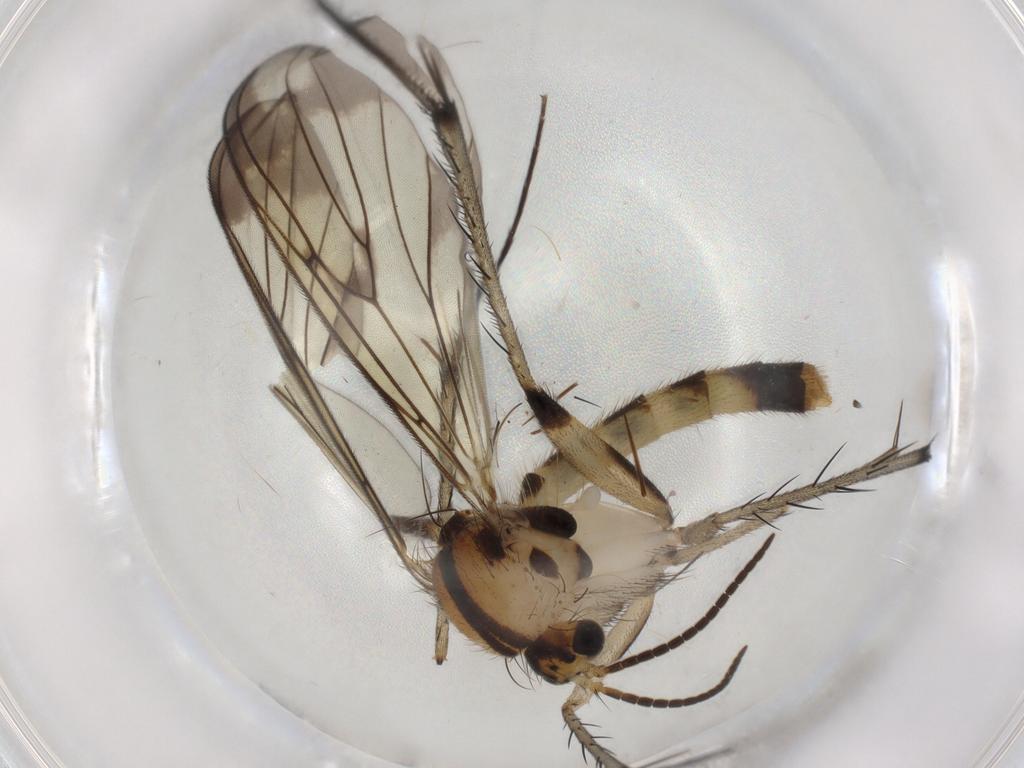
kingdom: Animalia
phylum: Arthropoda
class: Insecta
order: Diptera
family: Chironomidae
